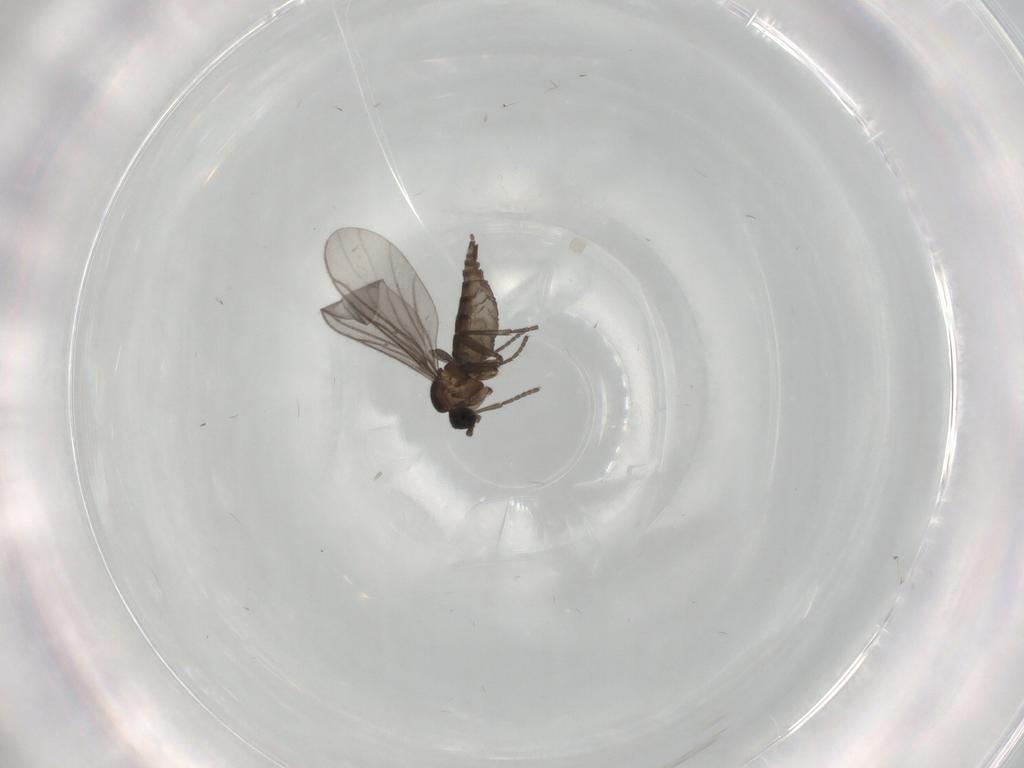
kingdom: Animalia
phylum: Arthropoda
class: Insecta
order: Diptera
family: Cecidomyiidae
